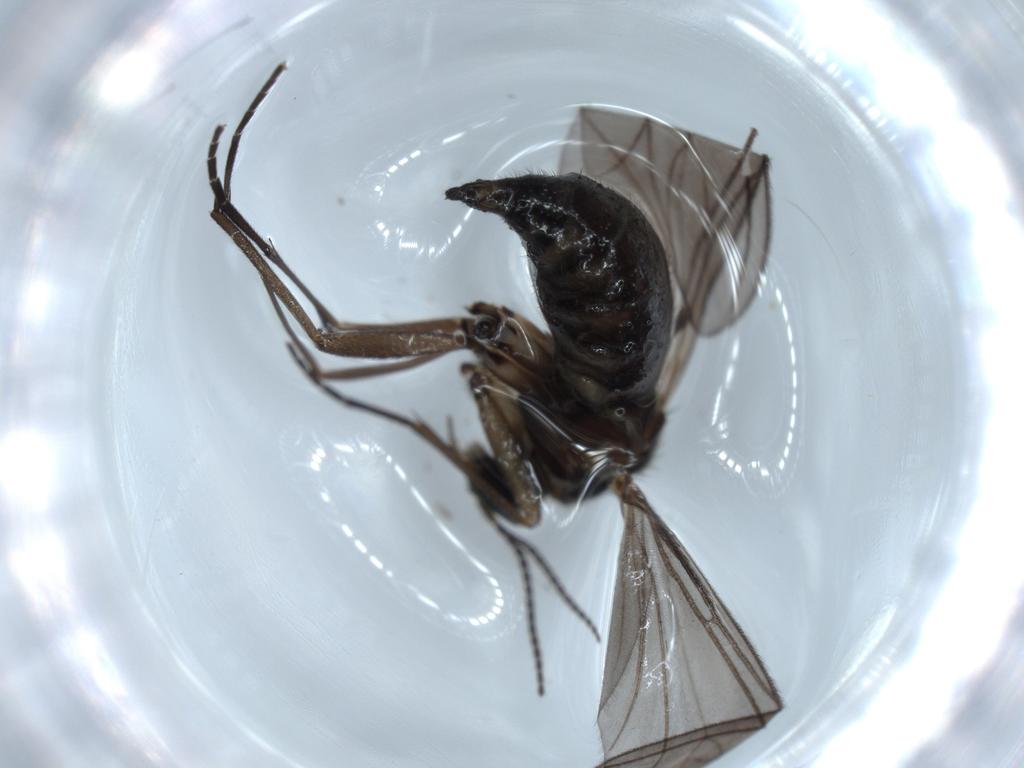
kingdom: Animalia
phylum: Arthropoda
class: Insecta
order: Diptera
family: Sciaridae
